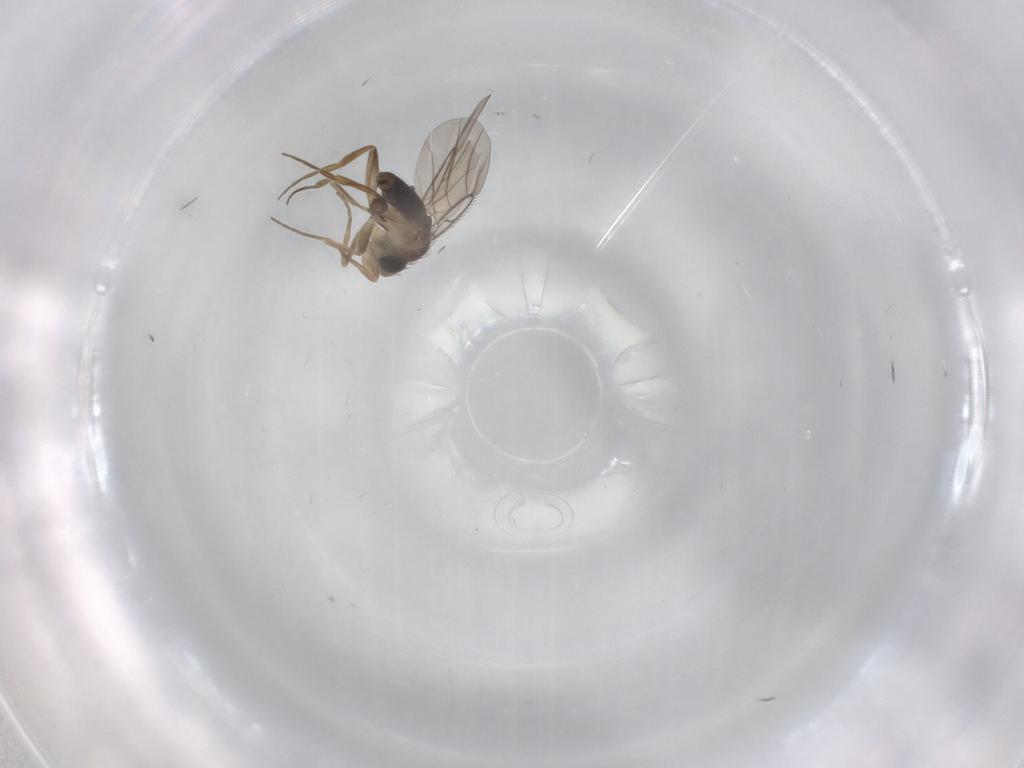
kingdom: Animalia
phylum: Arthropoda
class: Insecta
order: Diptera
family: Phoridae
